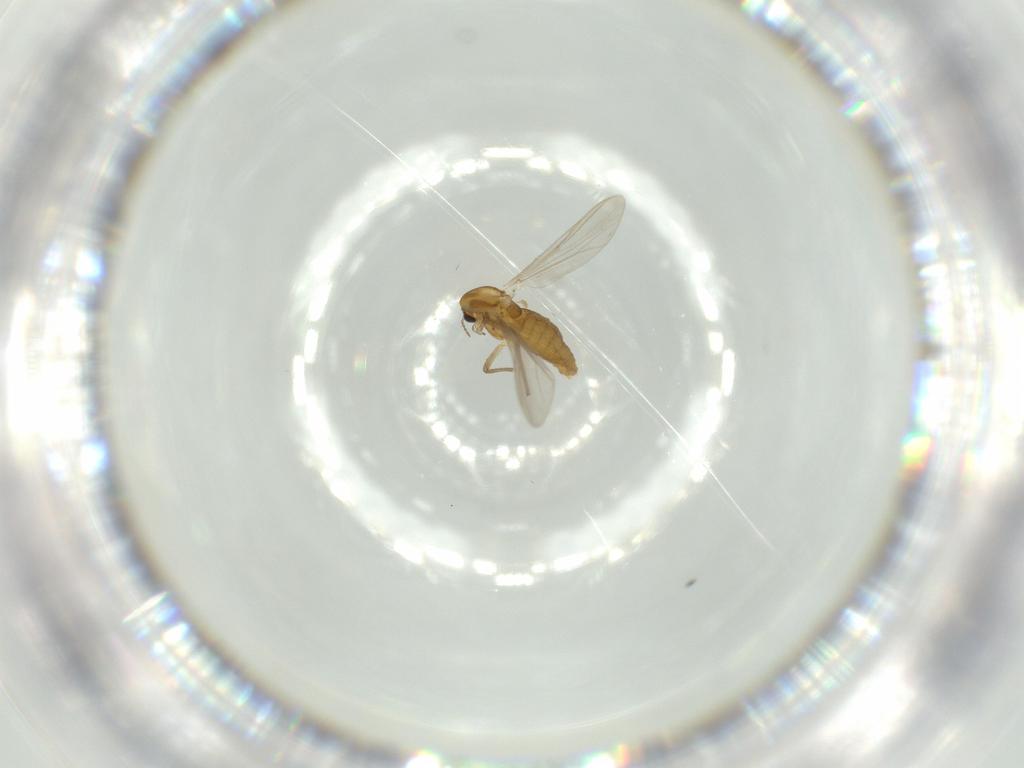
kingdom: Animalia
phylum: Arthropoda
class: Insecta
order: Diptera
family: Chironomidae
